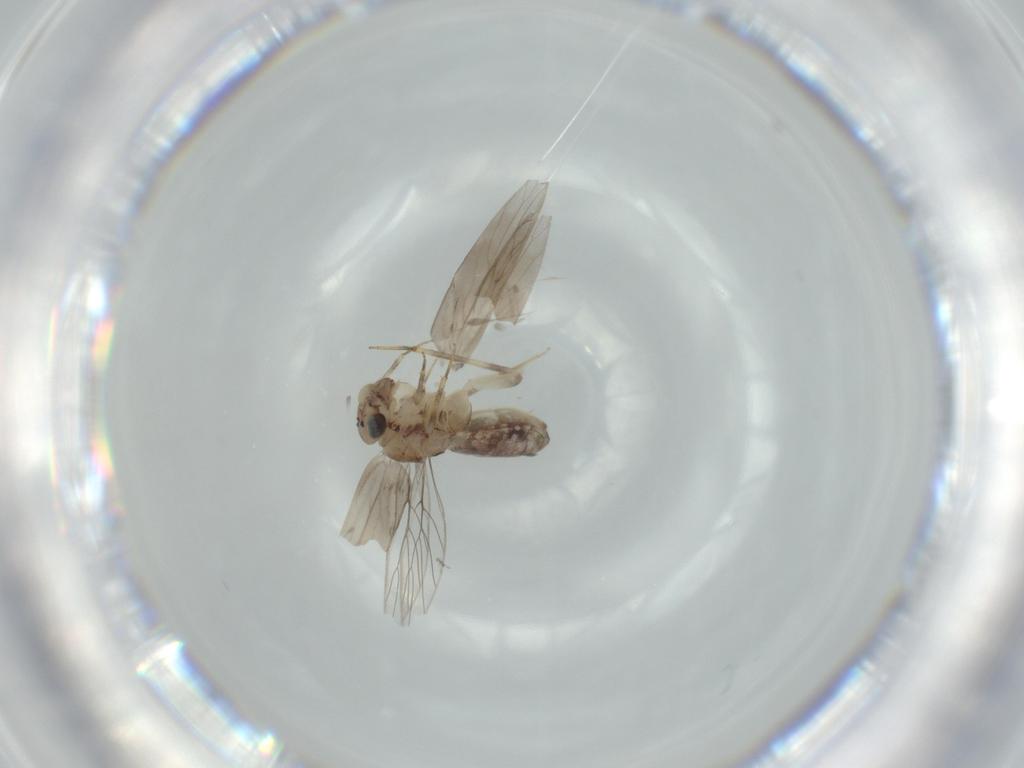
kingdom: Animalia
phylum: Arthropoda
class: Insecta
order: Psocodea
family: Lepidopsocidae
